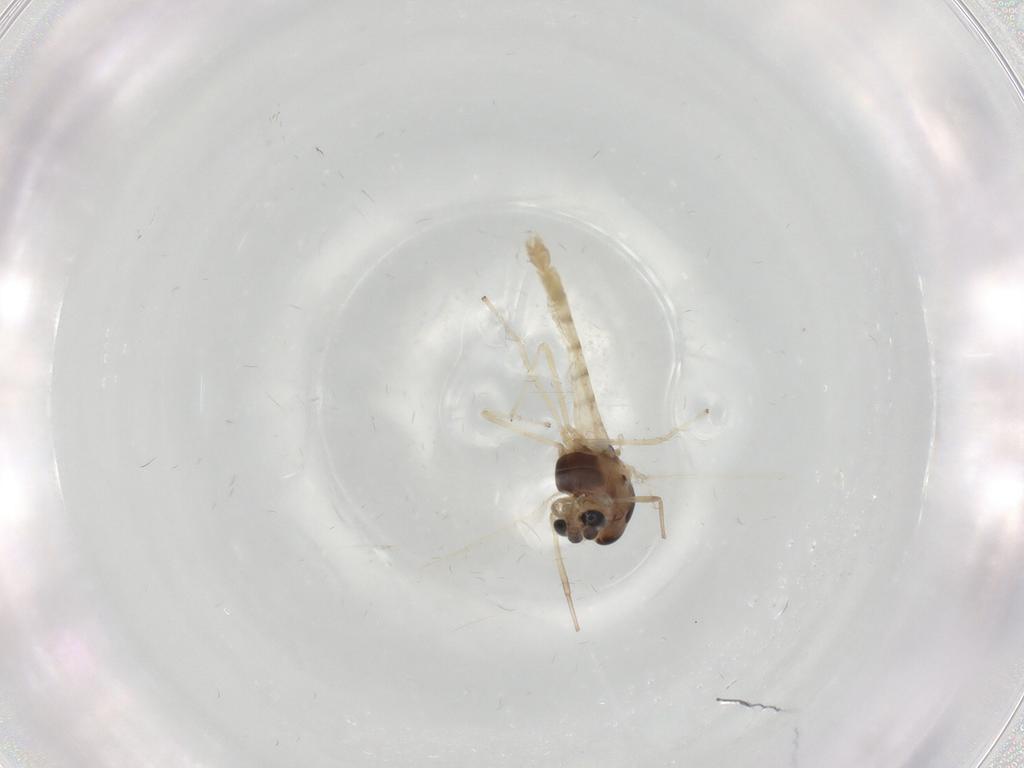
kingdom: Animalia
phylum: Arthropoda
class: Insecta
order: Diptera
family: Chironomidae
